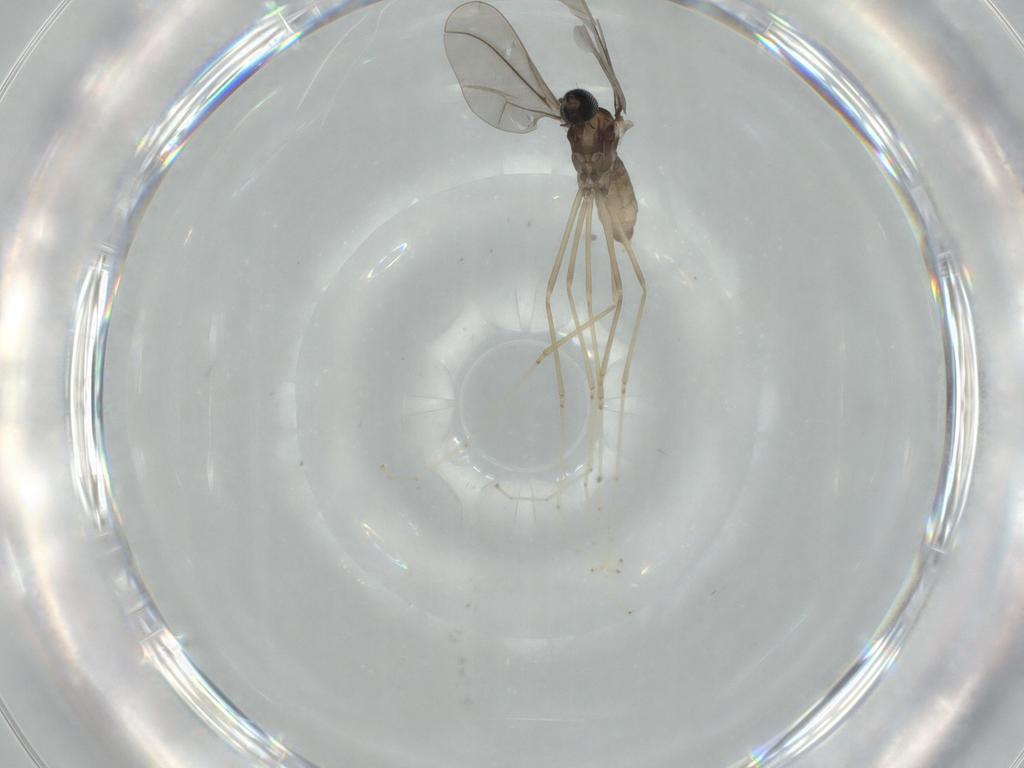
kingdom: Animalia
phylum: Arthropoda
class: Insecta
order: Diptera
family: Cecidomyiidae
